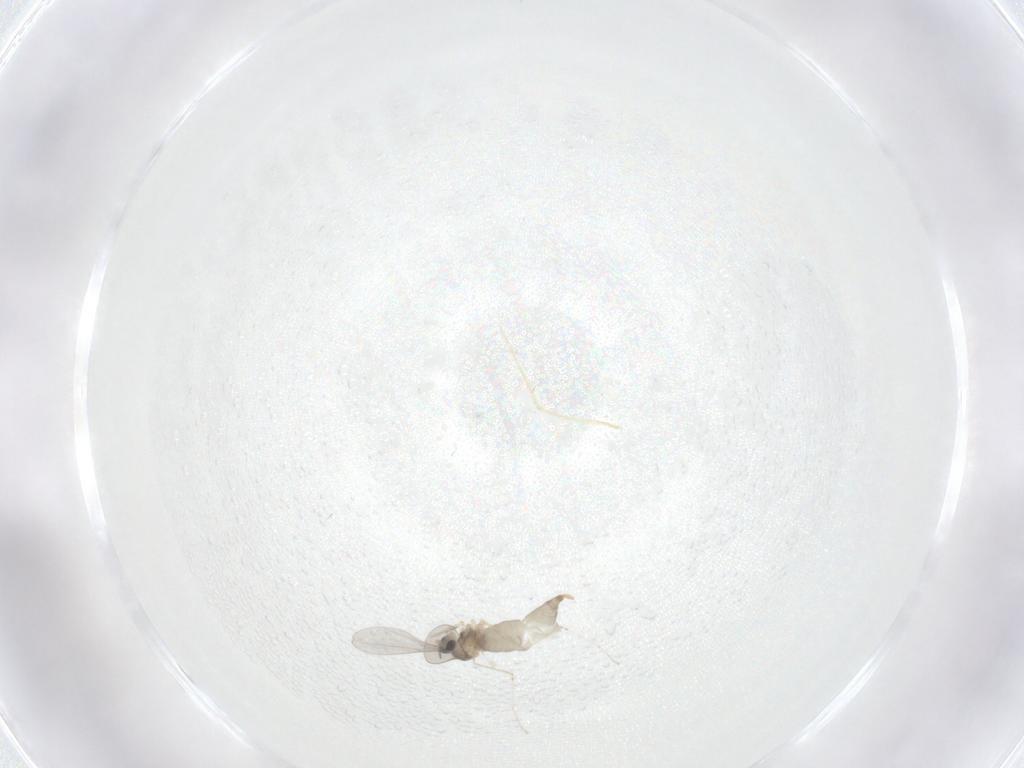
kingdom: Animalia
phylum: Arthropoda
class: Insecta
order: Diptera
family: Cecidomyiidae
